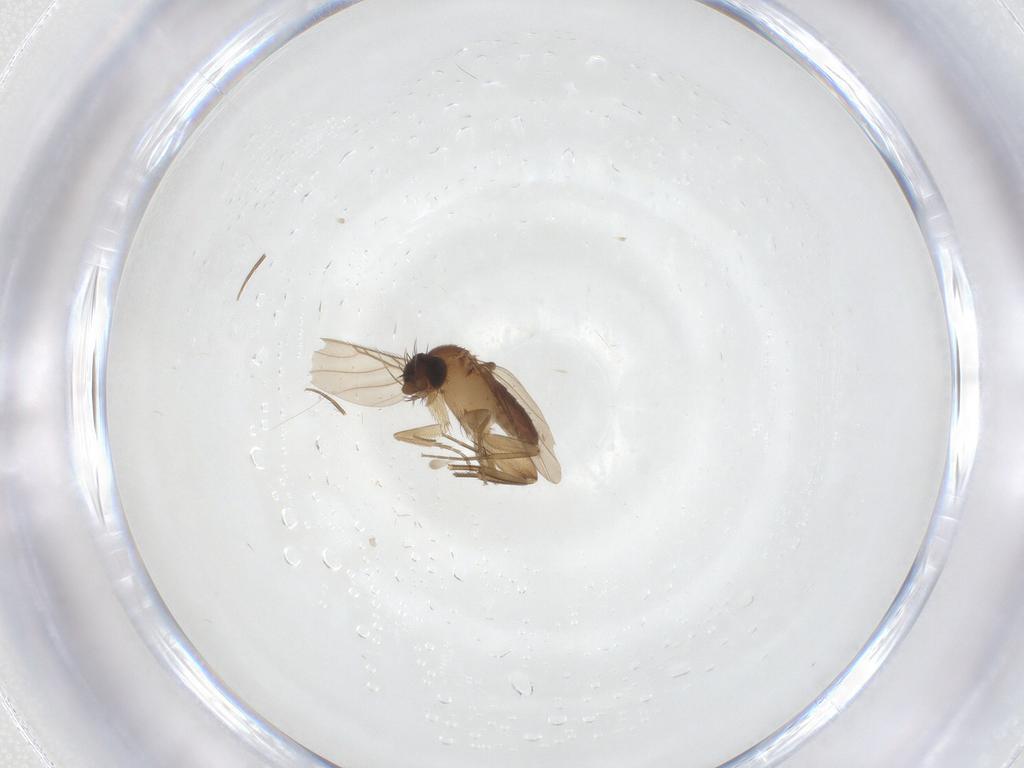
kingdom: Animalia
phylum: Arthropoda
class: Insecta
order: Diptera
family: Phoridae
